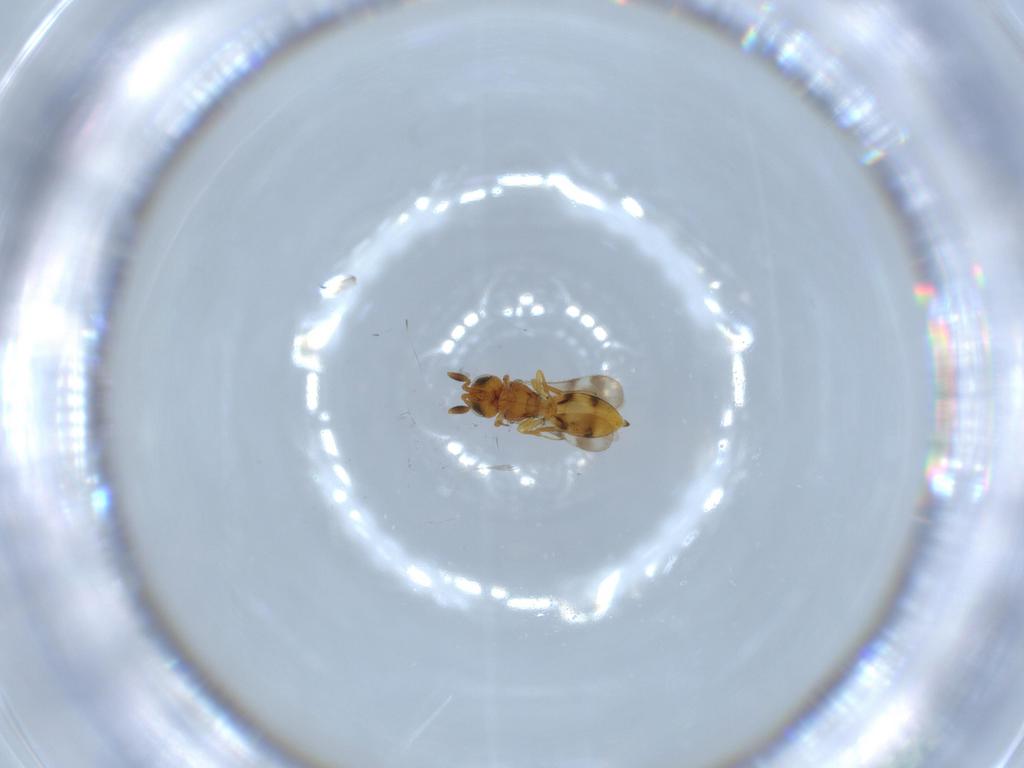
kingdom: Animalia
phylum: Arthropoda
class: Insecta
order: Hymenoptera
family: Scelionidae
